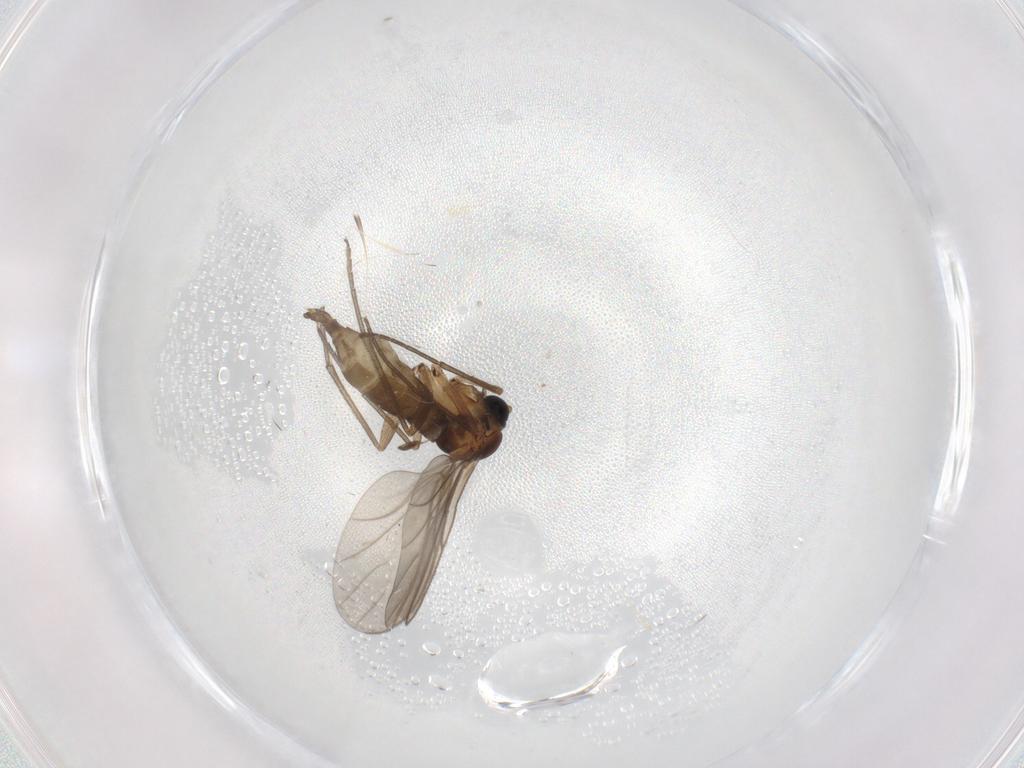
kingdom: Animalia
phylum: Arthropoda
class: Insecta
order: Diptera
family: Sciaridae
